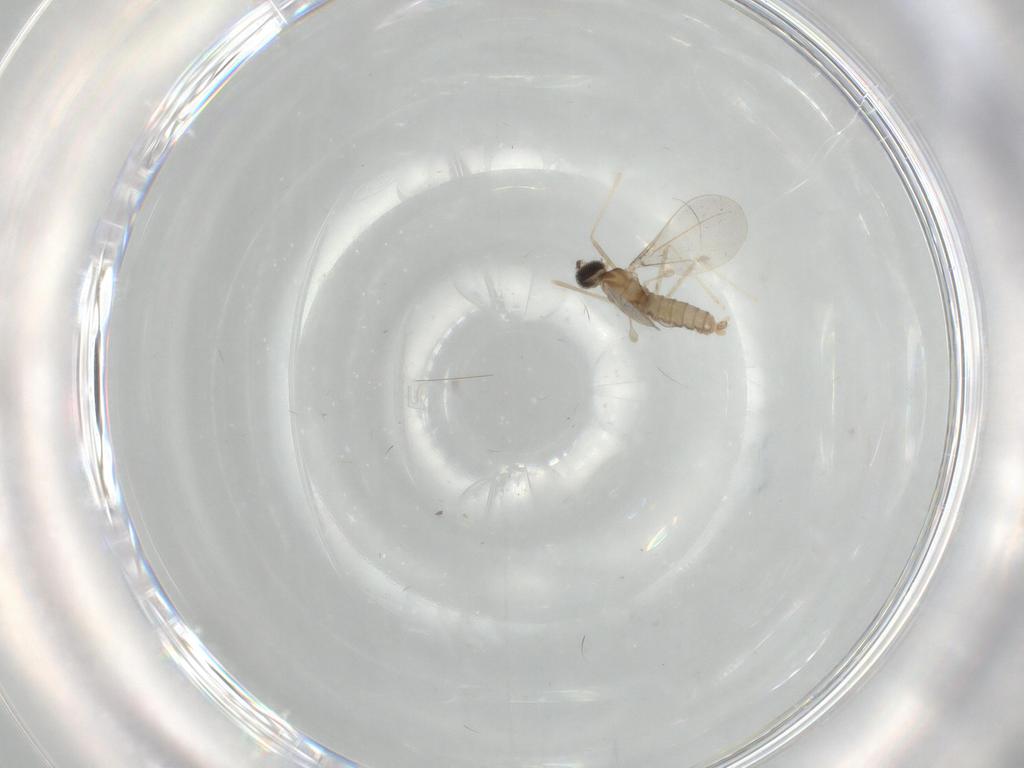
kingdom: Animalia
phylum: Arthropoda
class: Insecta
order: Diptera
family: Cecidomyiidae
